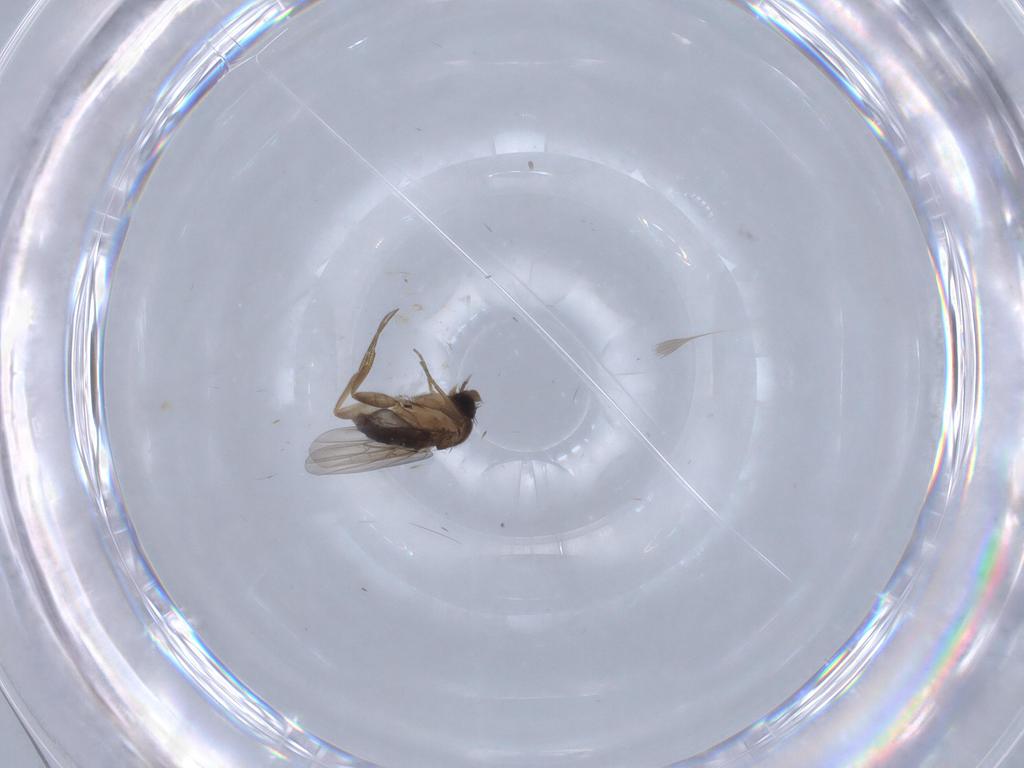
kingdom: Animalia
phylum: Arthropoda
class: Insecta
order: Diptera
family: Phoridae
